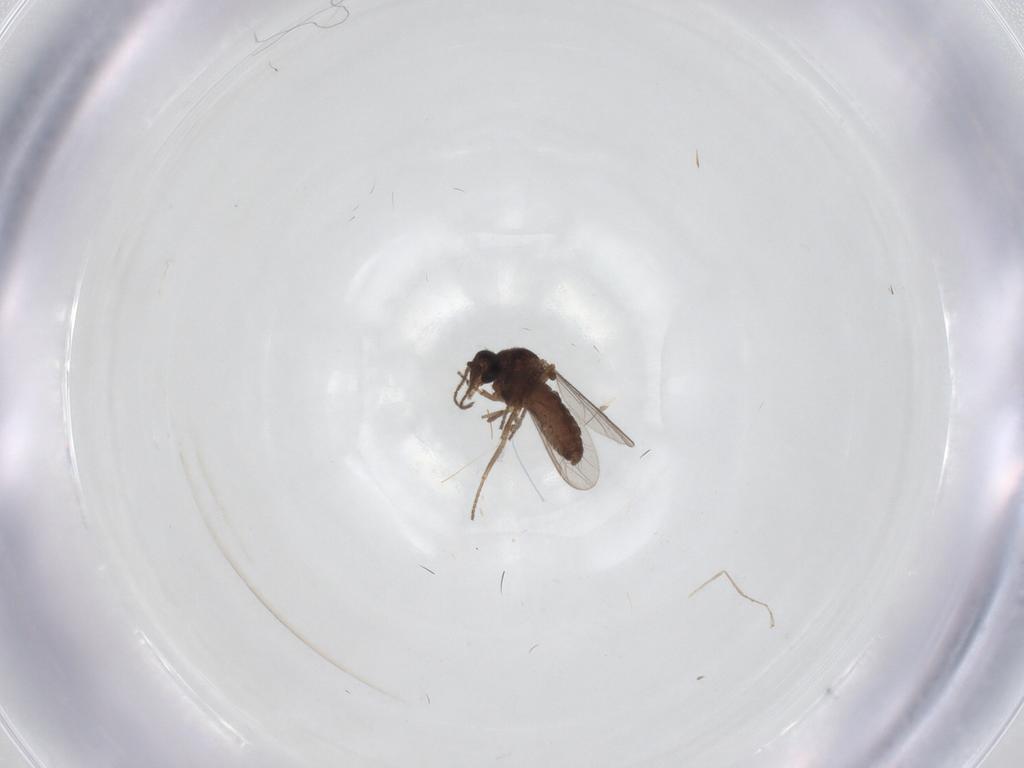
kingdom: Animalia
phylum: Arthropoda
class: Insecta
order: Diptera
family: Ceratopogonidae
